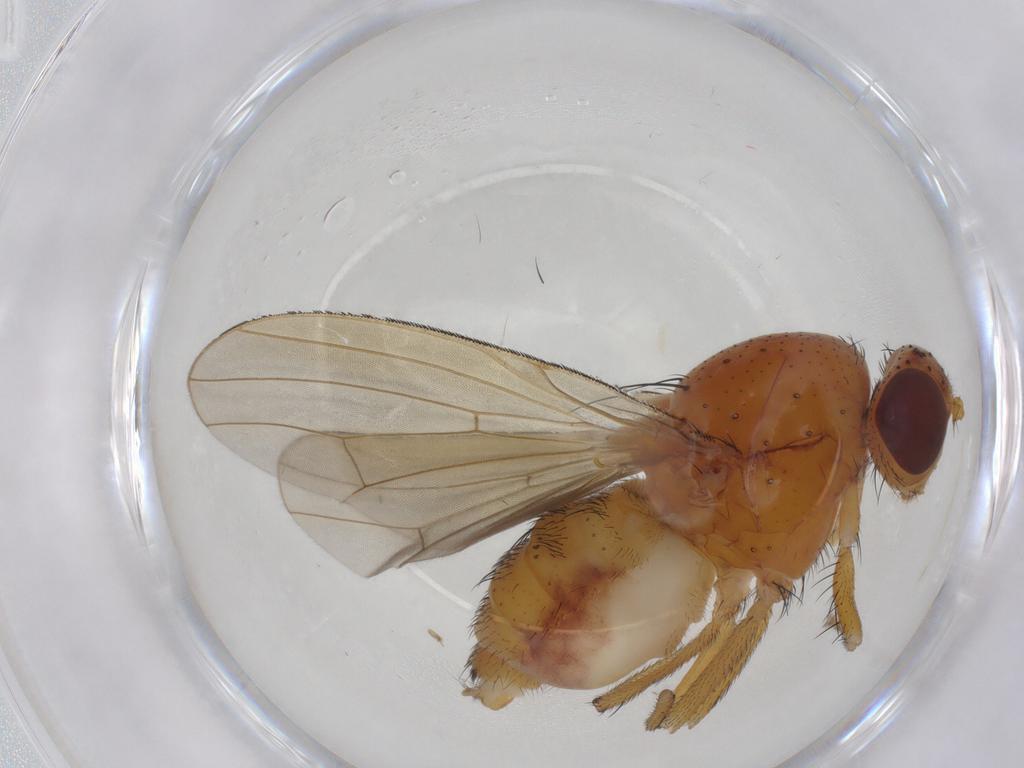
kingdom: Animalia
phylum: Arthropoda
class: Insecta
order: Diptera
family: Lauxaniidae
